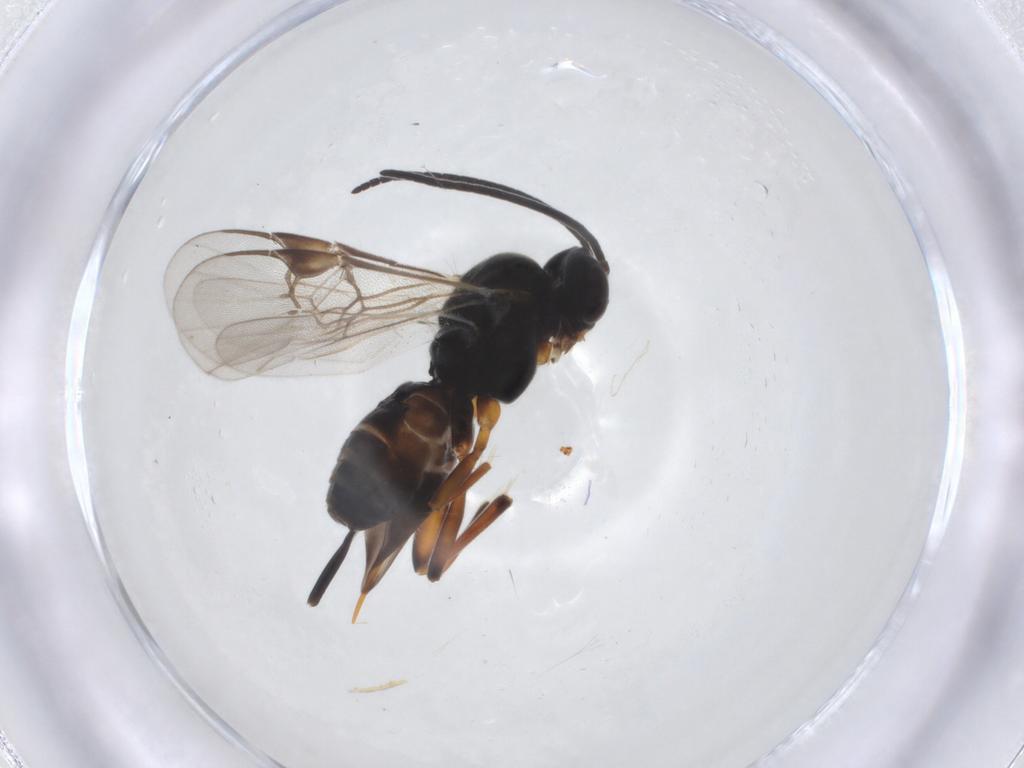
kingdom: Animalia
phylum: Arthropoda
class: Insecta
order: Hymenoptera
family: Braconidae
